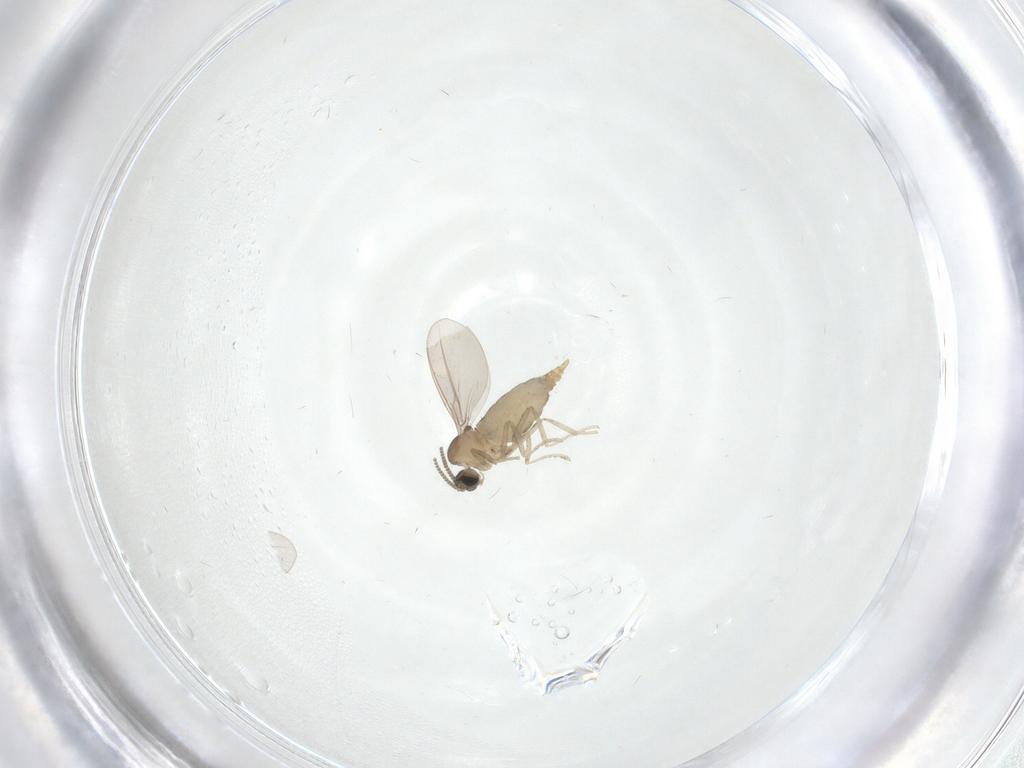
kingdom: Animalia
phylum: Arthropoda
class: Insecta
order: Diptera
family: Cecidomyiidae
